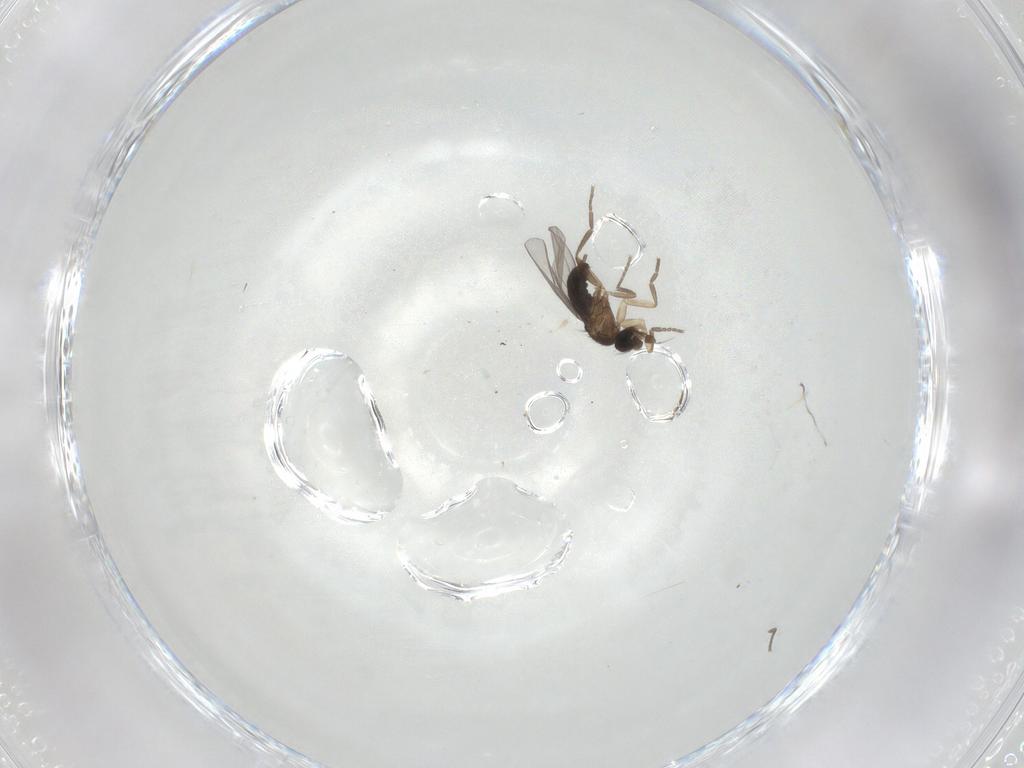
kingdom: Animalia
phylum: Arthropoda
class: Insecta
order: Diptera
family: Phoridae
